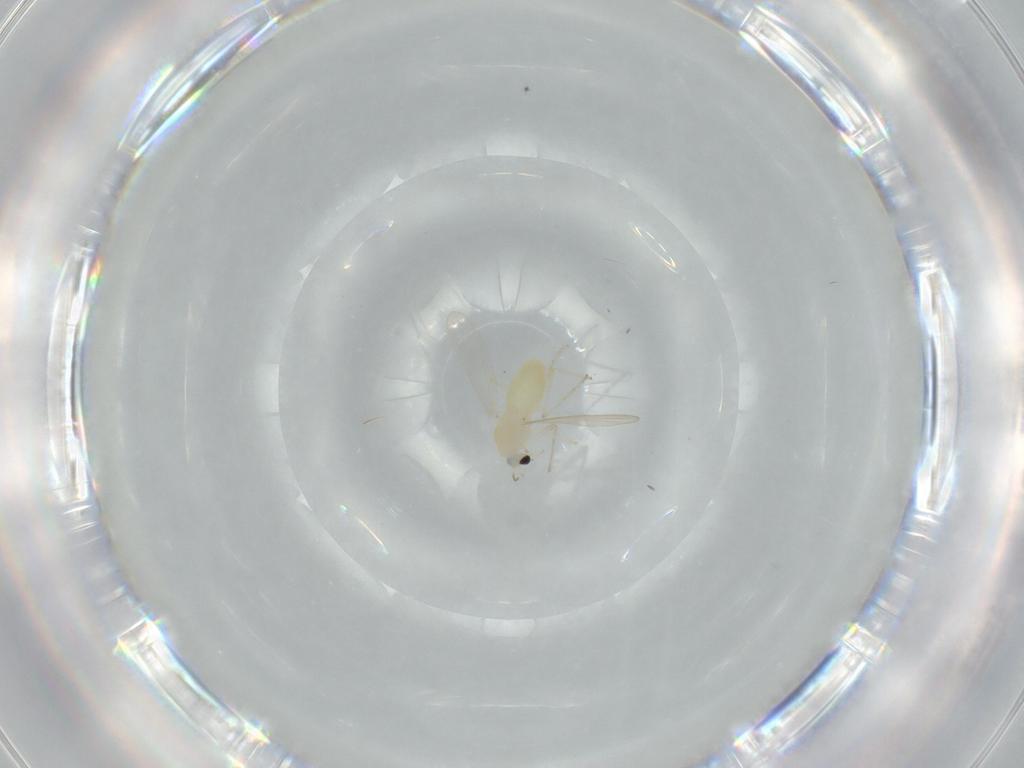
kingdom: Animalia
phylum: Arthropoda
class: Insecta
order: Diptera
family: Chironomidae
